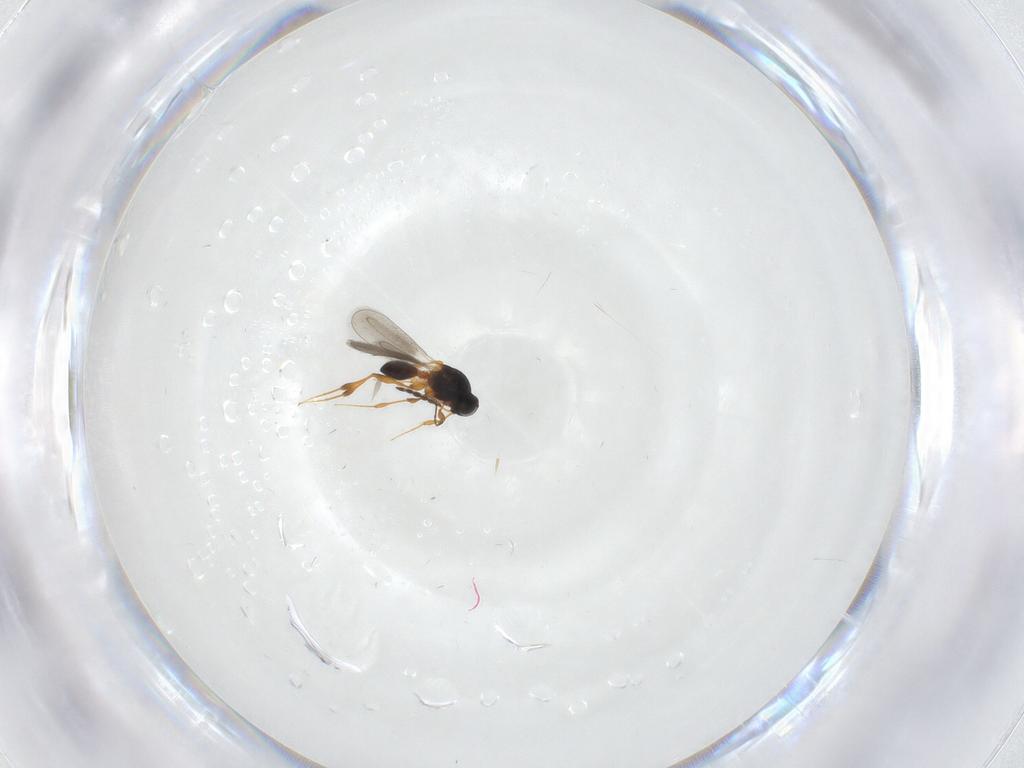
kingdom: Animalia
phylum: Arthropoda
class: Insecta
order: Hymenoptera
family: Platygastridae
